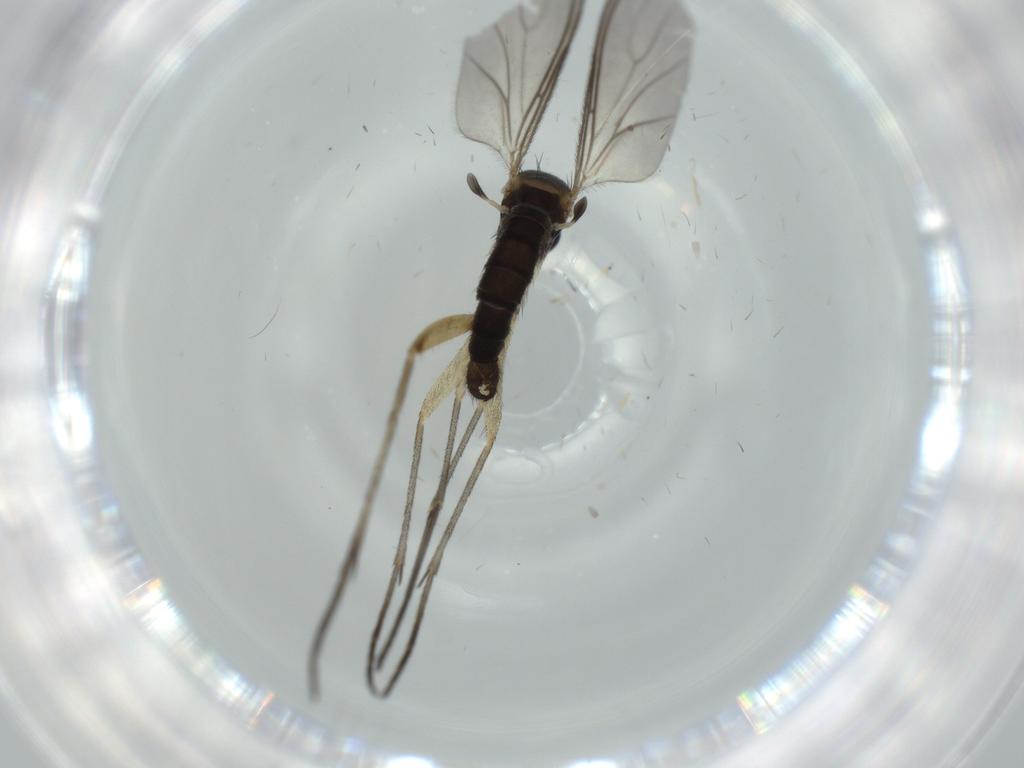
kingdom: Animalia
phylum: Arthropoda
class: Insecta
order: Diptera
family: Sciaridae
